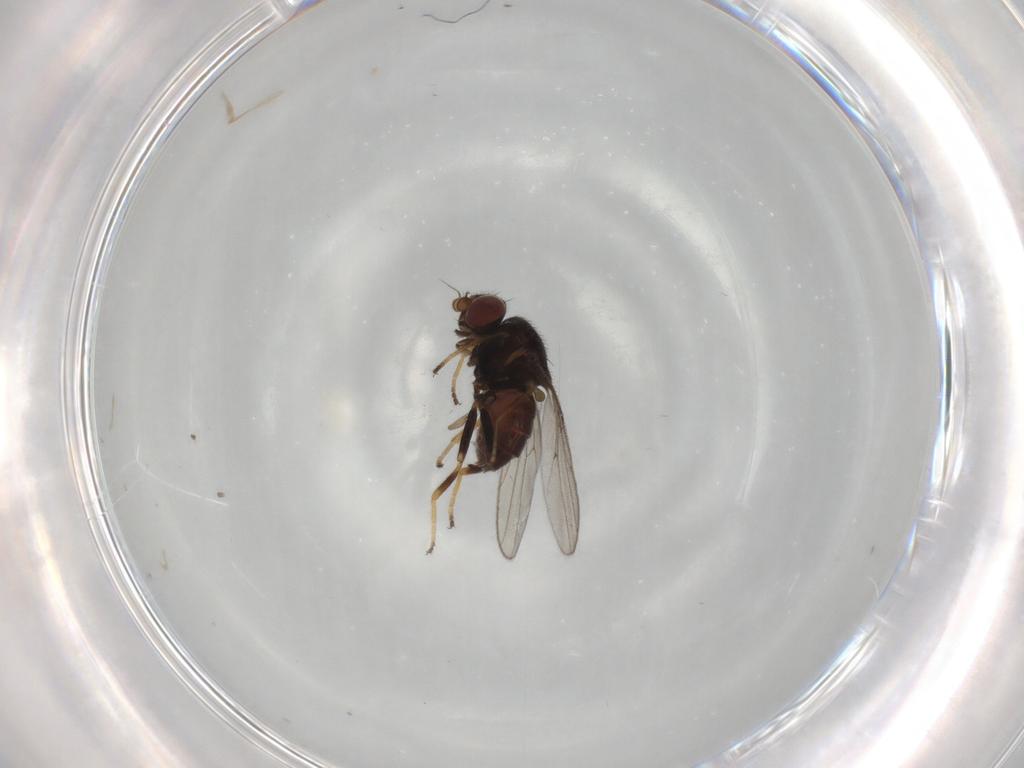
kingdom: Animalia
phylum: Arthropoda
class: Insecta
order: Diptera
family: Chloropidae
